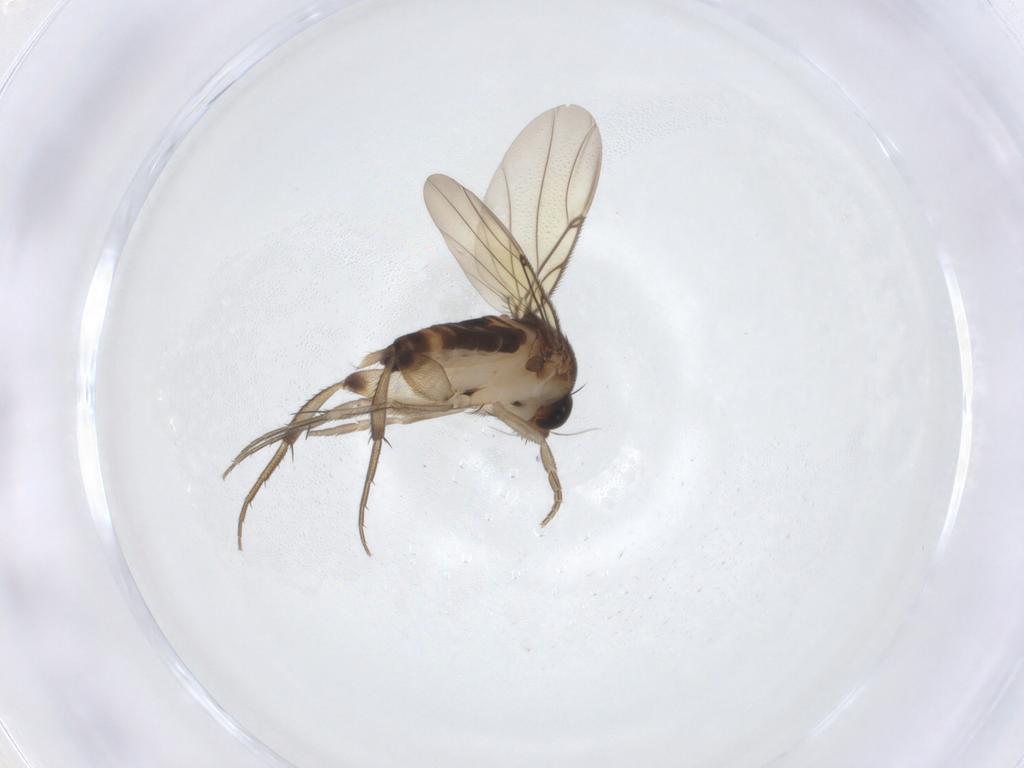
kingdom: Animalia
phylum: Arthropoda
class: Insecta
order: Diptera
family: Phoridae
